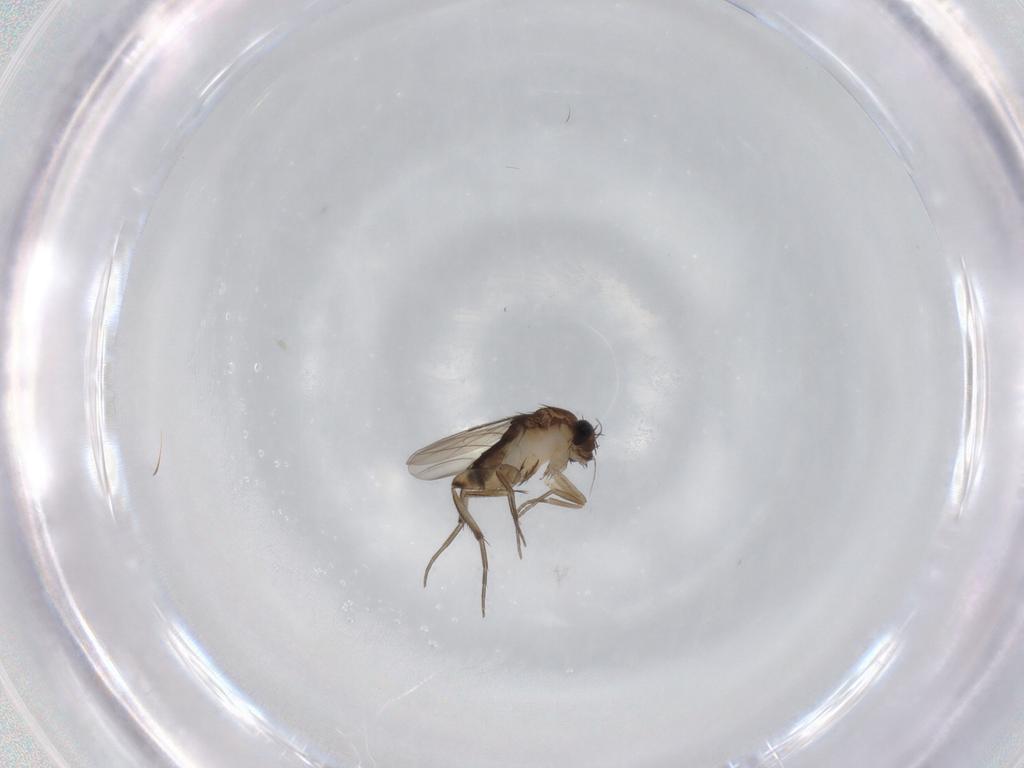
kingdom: Animalia
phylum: Arthropoda
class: Insecta
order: Diptera
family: Phoridae
